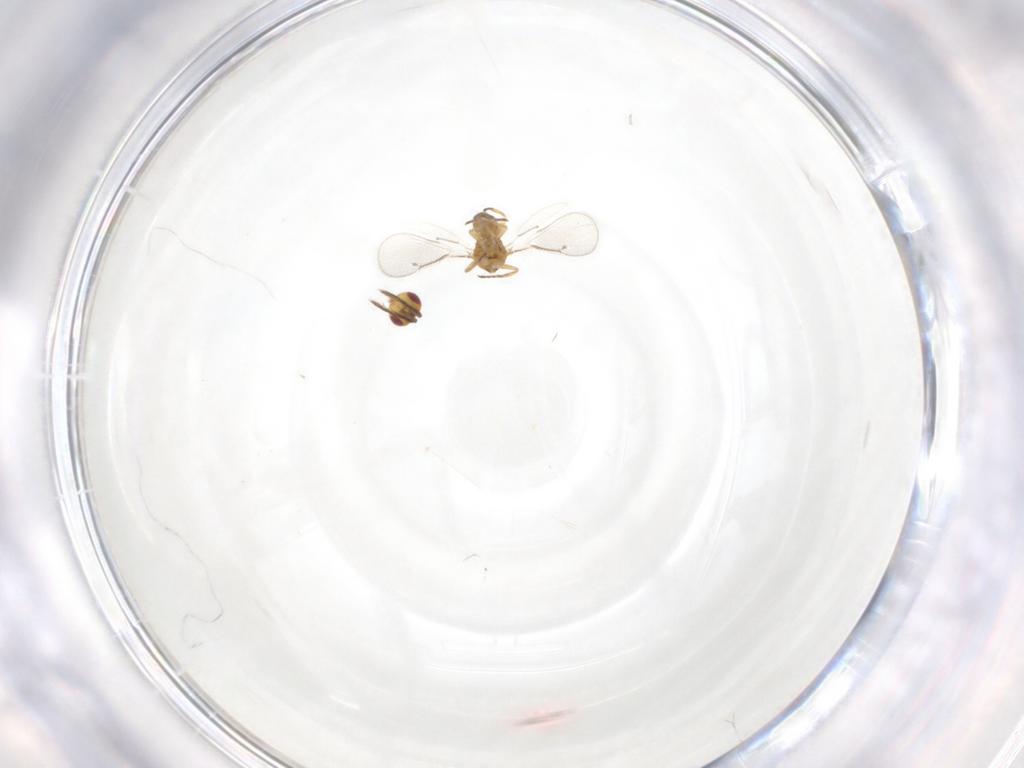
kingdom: Animalia
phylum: Arthropoda
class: Insecta
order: Hymenoptera
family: Eulophidae
